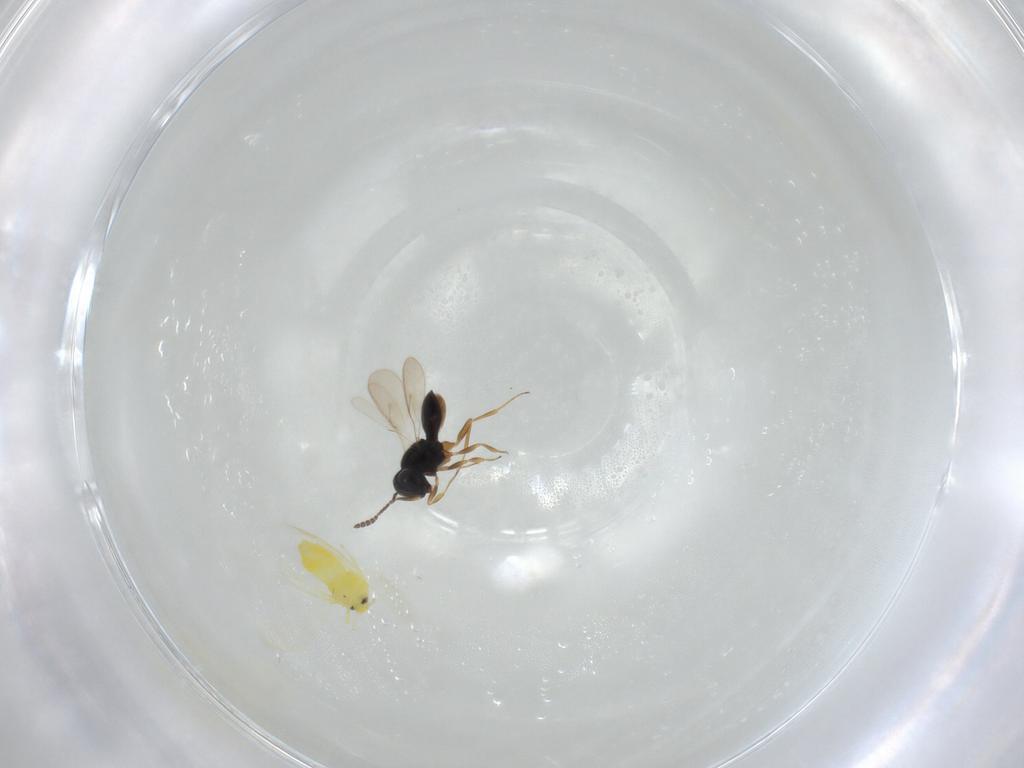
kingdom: Animalia
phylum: Arthropoda
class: Insecta
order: Hemiptera
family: Aleyrodidae
